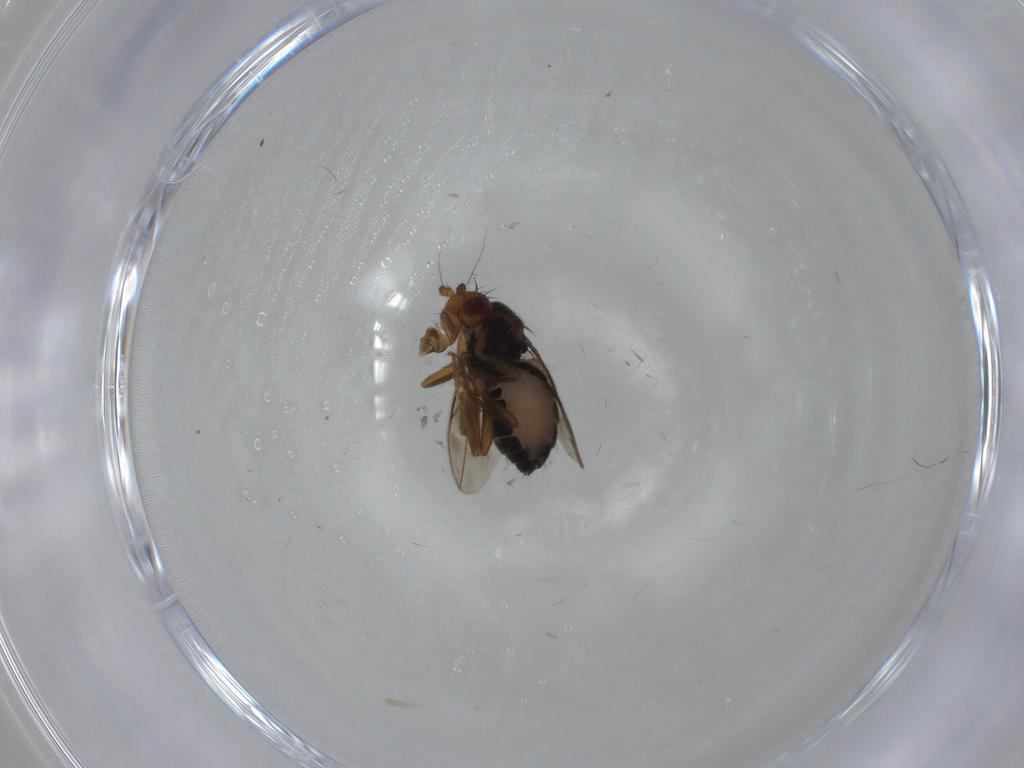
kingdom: Animalia
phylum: Arthropoda
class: Insecta
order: Diptera
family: Sphaeroceridae
